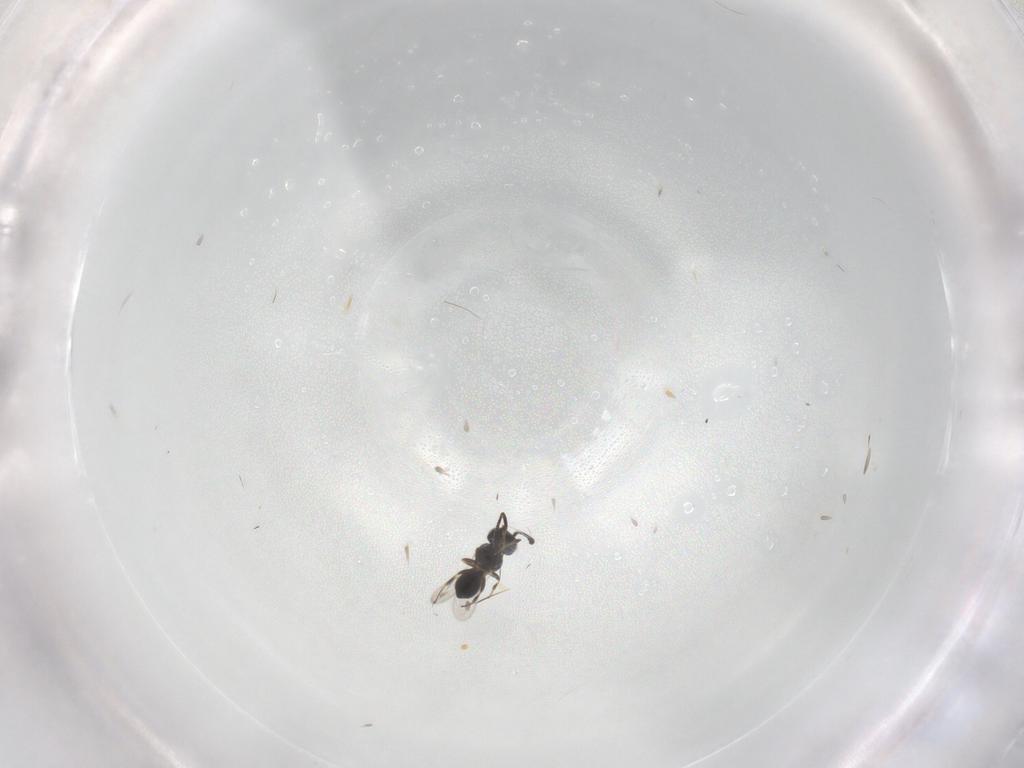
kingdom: Animalia
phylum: Arthropoda
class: Insecta
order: Hymenoptera
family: Scelionidae
